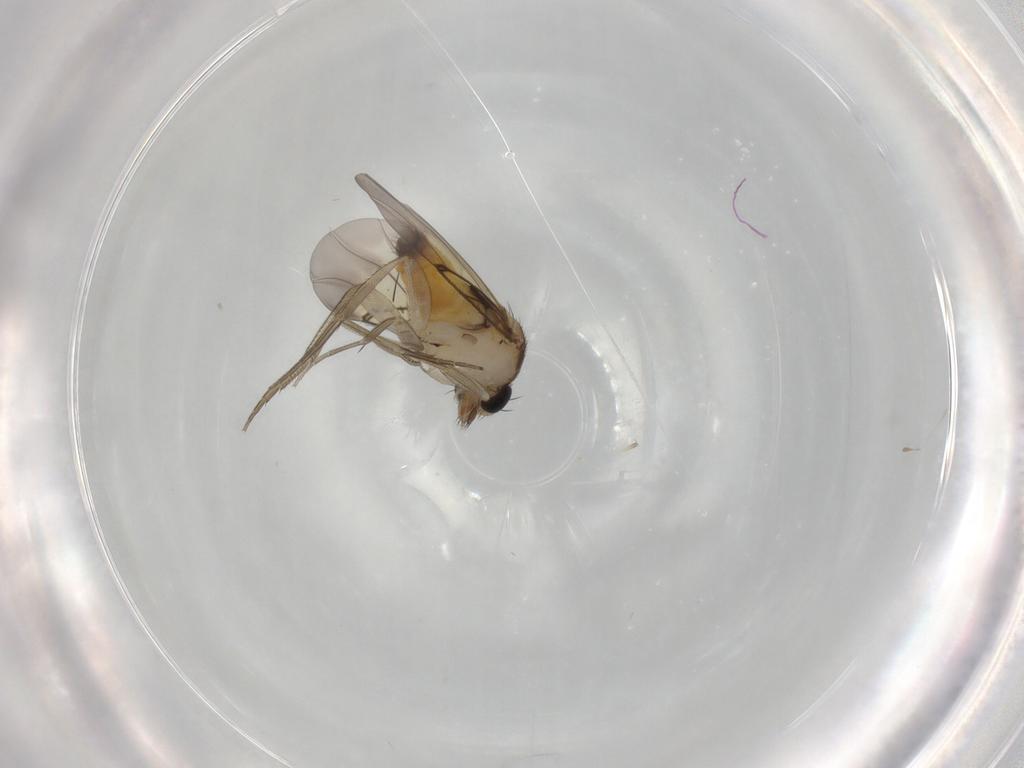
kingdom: Animalia
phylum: Arthropoda
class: Insecta
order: Diptera
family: Phoridae
